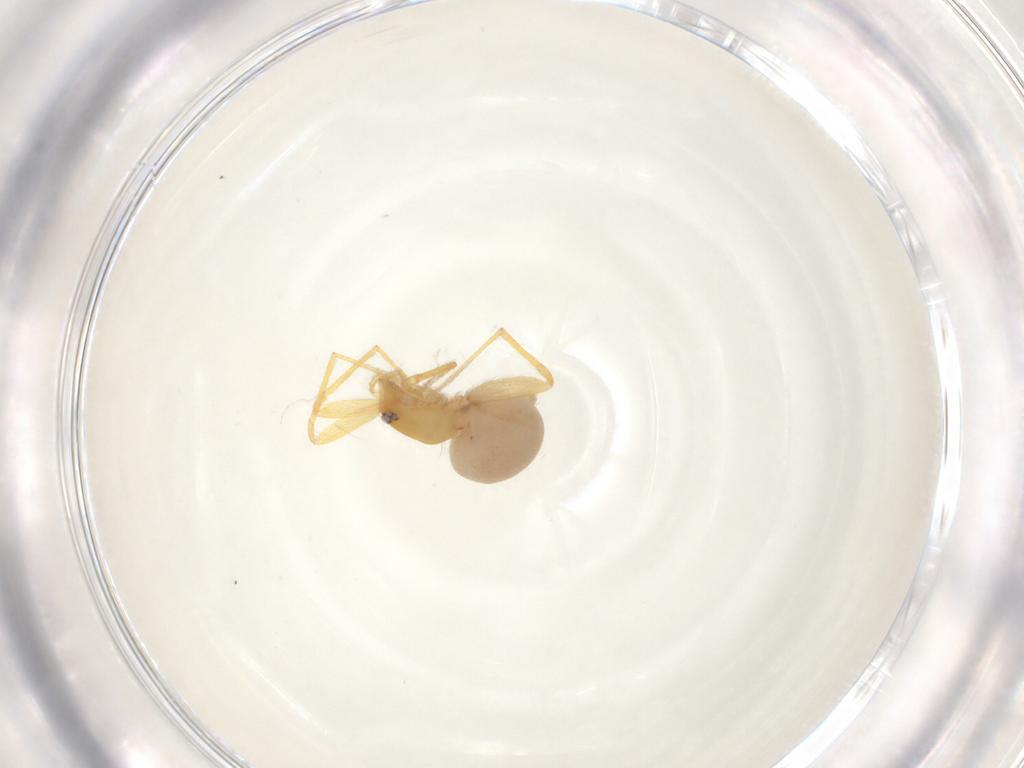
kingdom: Animalia
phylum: Arthropoda
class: Arachnida
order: Araneae
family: Oonopidae
